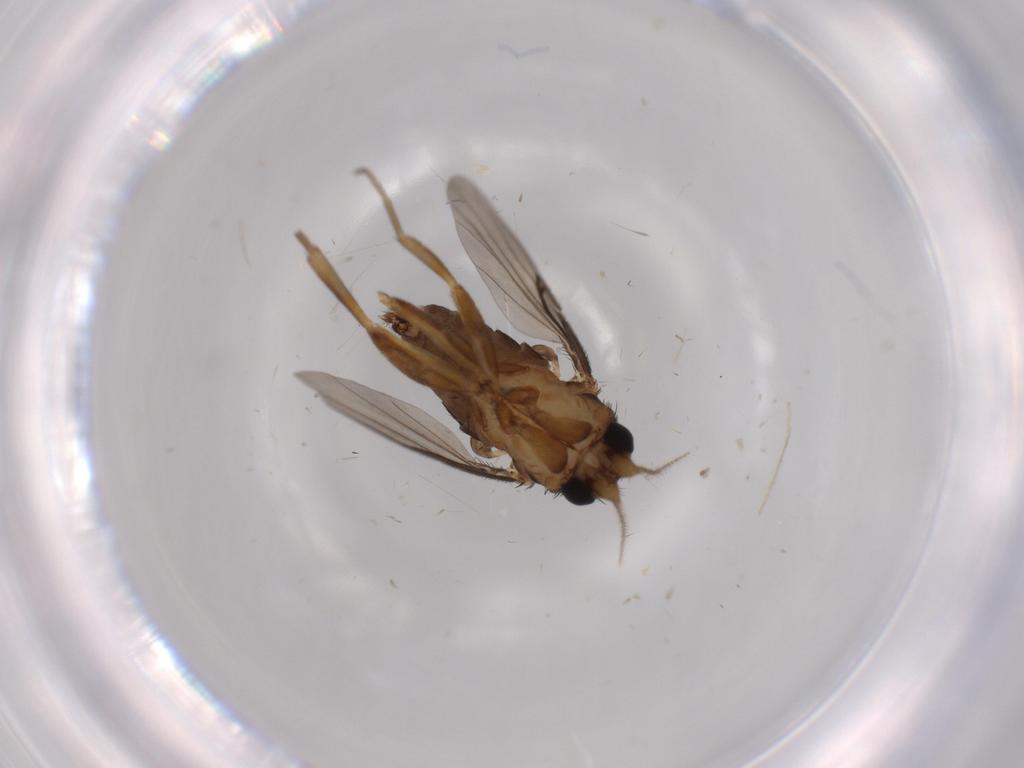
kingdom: Animalia
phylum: Arthropoda
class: Insecta
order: Diptera
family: Phoridae
